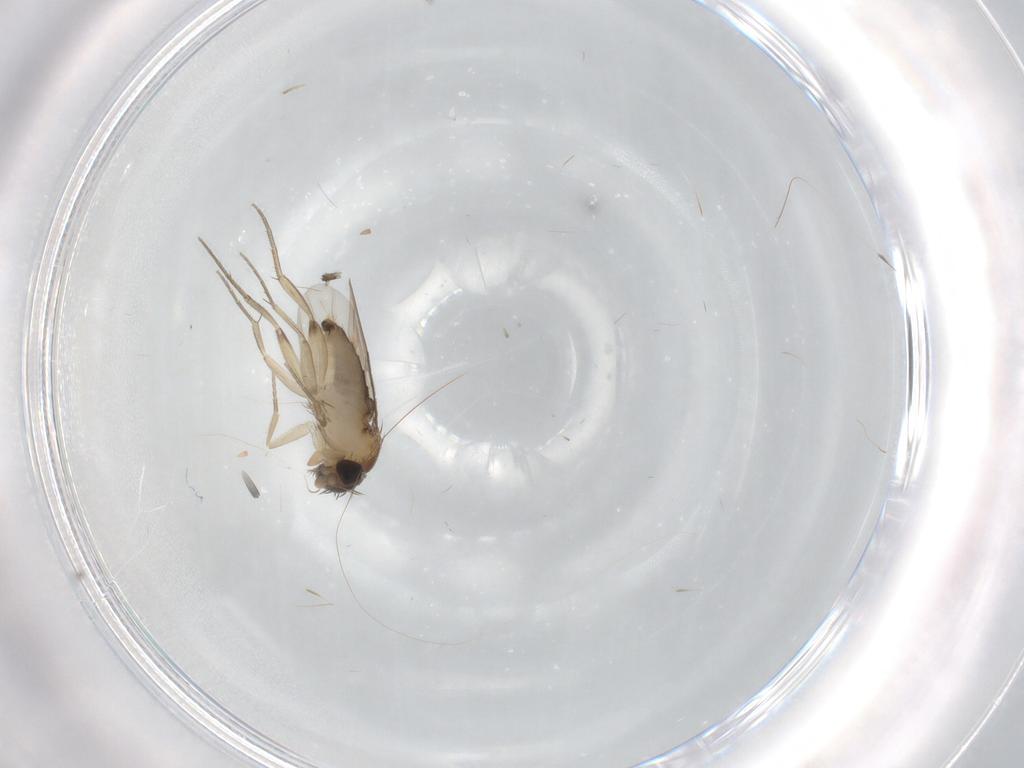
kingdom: Animalia
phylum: Arthropoda
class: Insecta
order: Diptera
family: Phoridae
